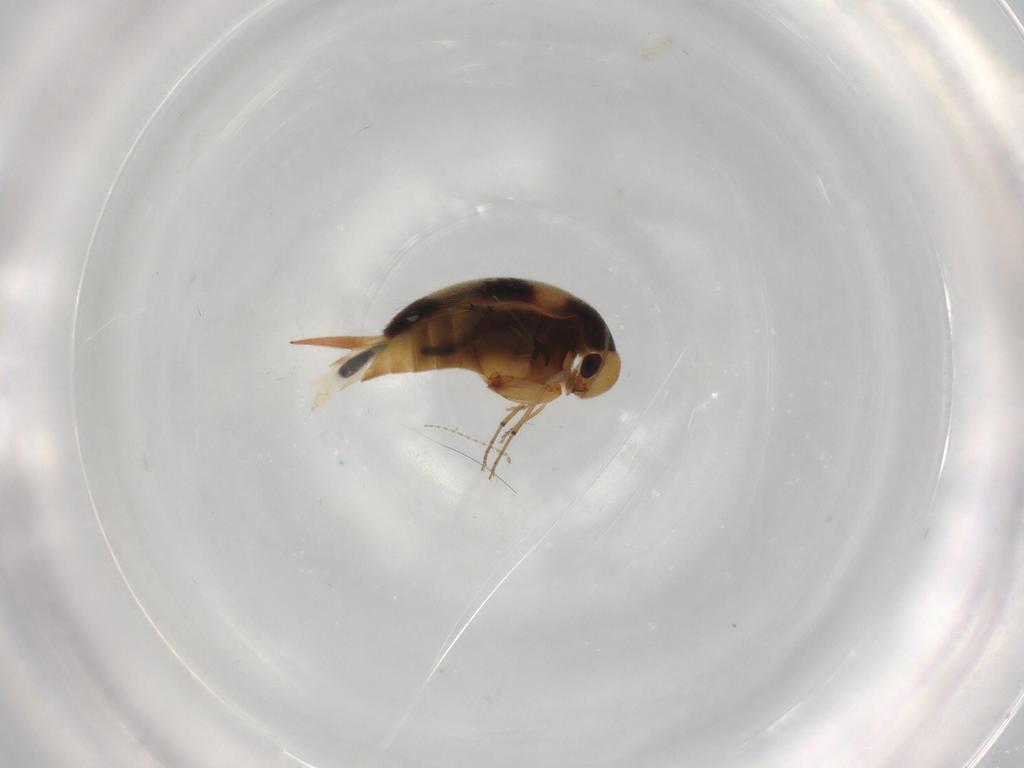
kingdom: Animalia
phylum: Arthropoda
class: Insecta
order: Coleoptera
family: Mordellidae
